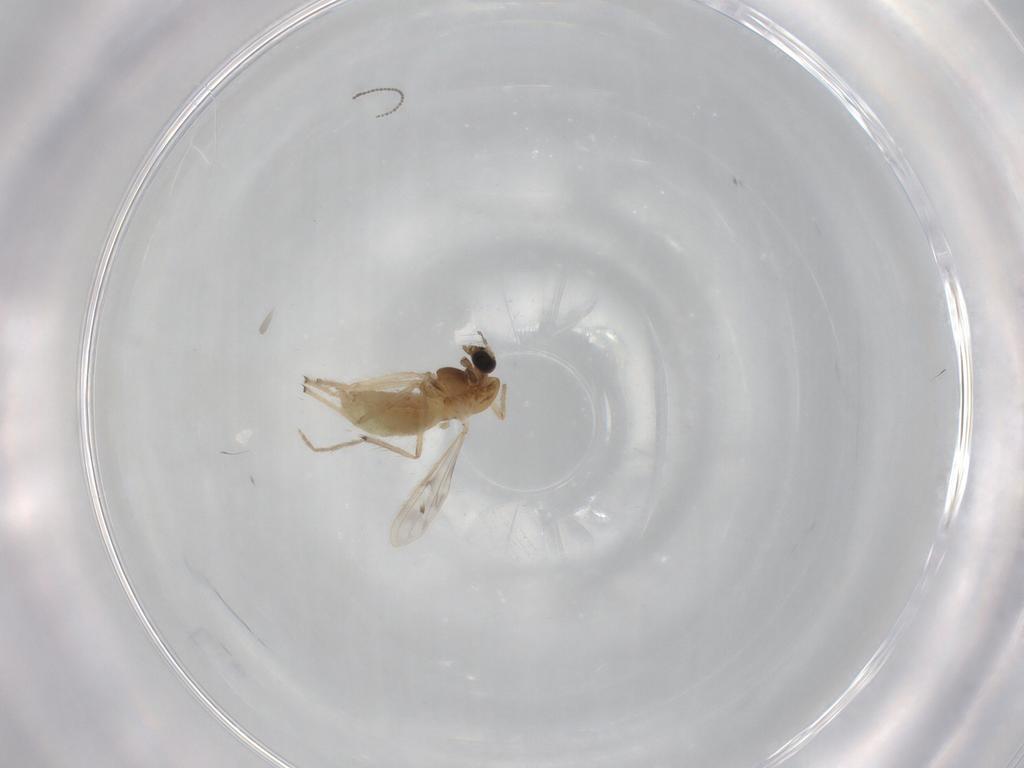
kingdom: Animalia
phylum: Arthropoda
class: Insecta
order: Diptera
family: Chironomidae
